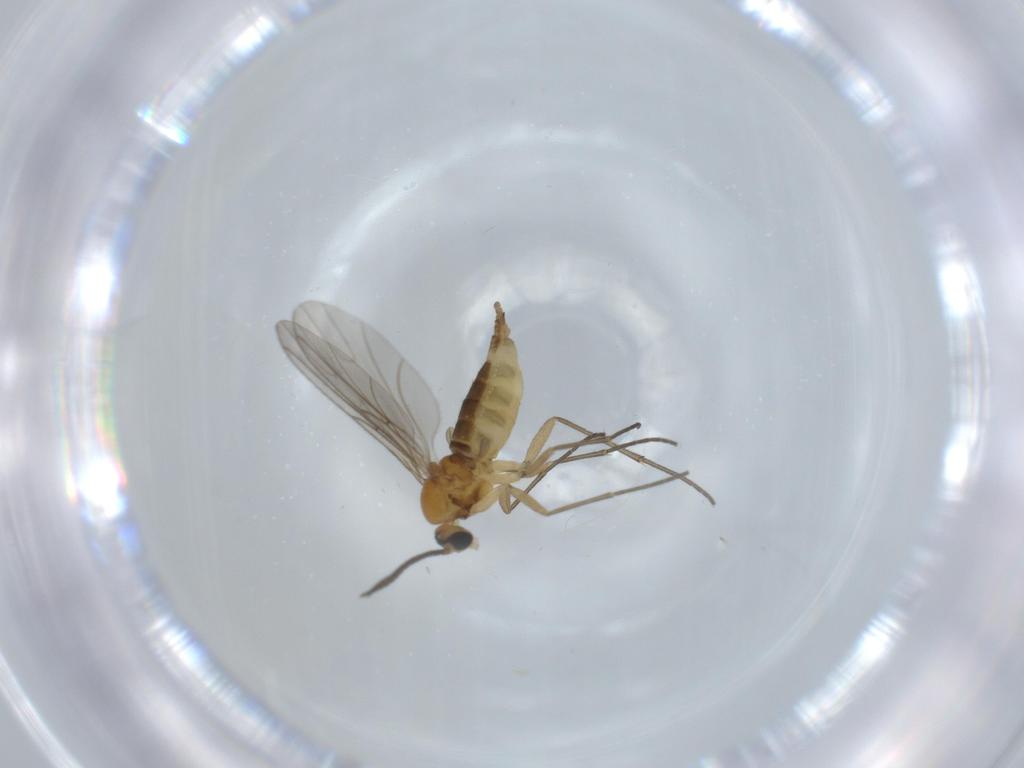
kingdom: Animalia
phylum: Arthropoda
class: Insecta
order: Diptera
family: Sciaridae
